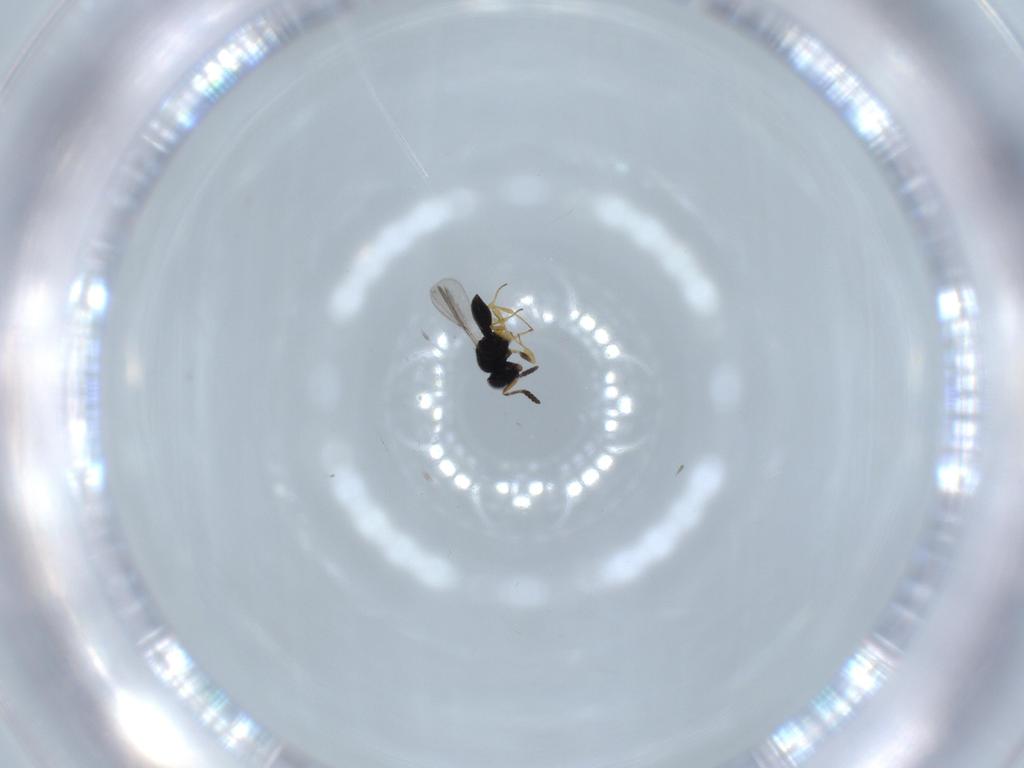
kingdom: Animalia
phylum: Arthropoda
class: Insecta
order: Hymenoptera
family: Scelionidae
